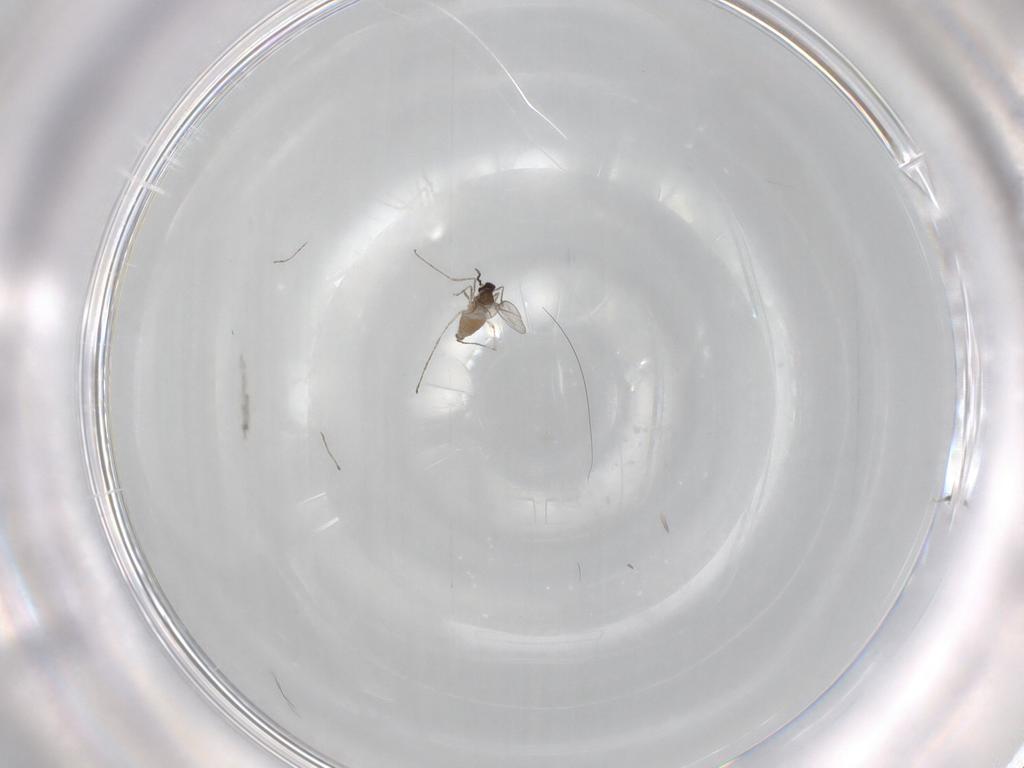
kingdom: Animalia
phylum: Arthropoda
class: Insecta
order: Diptera
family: Cecidomyiidae
